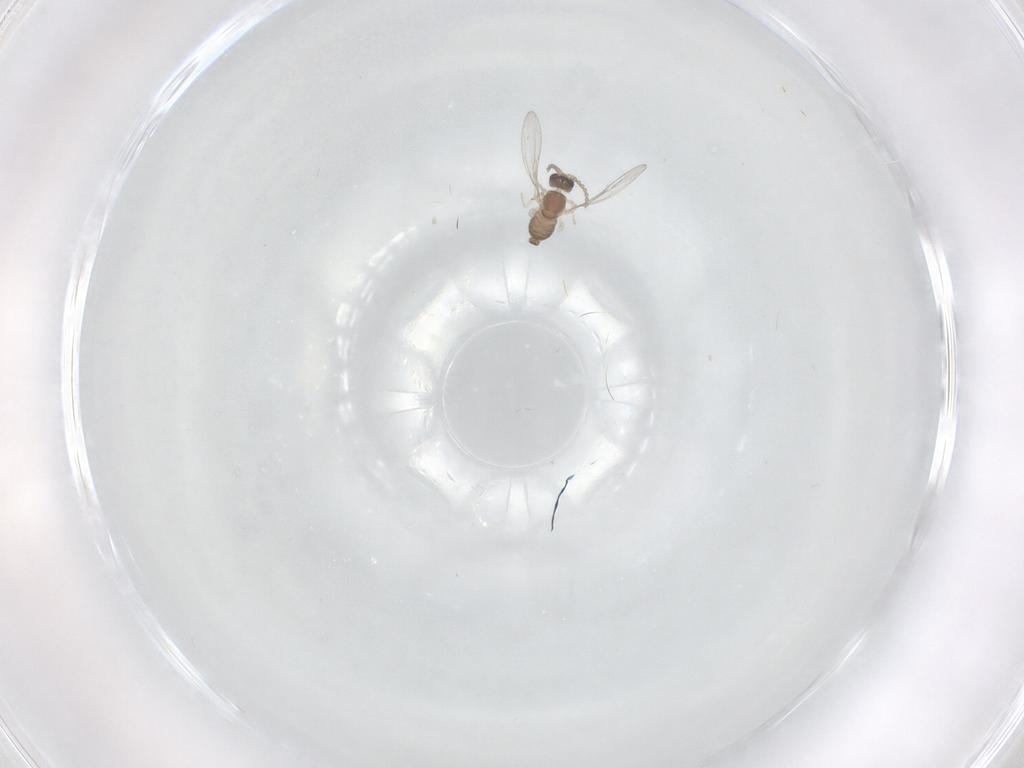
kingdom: Animalia
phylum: Arthropoda
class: Insecta
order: Diptera
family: Cecidomyiidae
